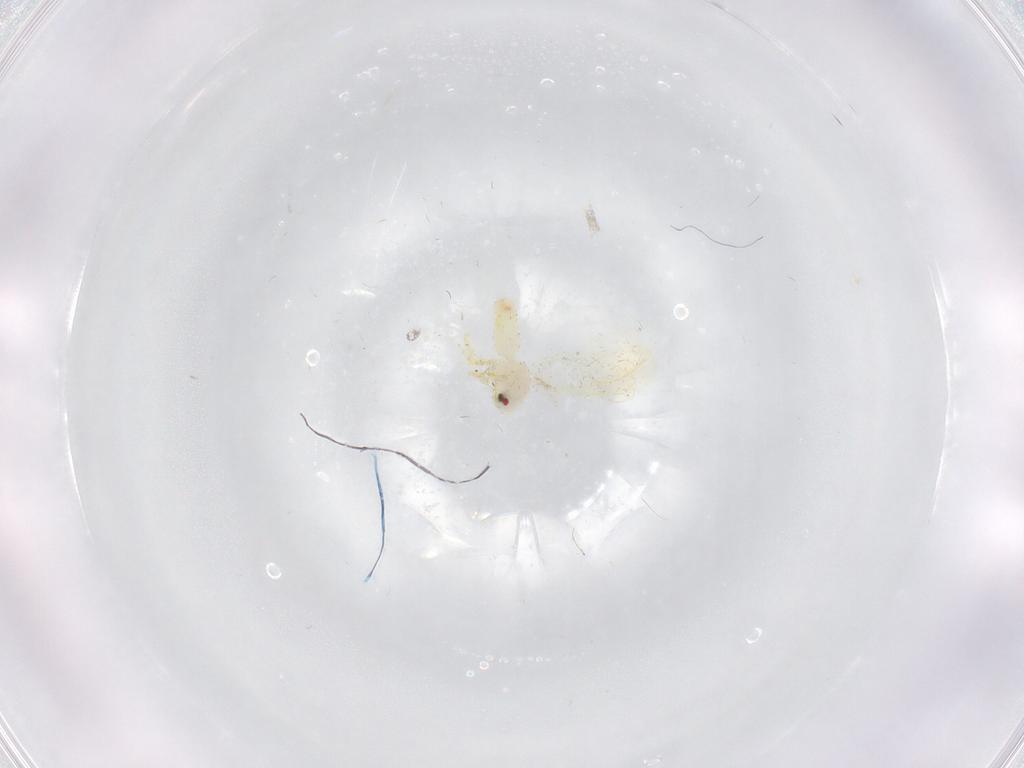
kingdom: Animalia
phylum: Arthropoda
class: Insecta
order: Hemiptera
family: Aleyrodidae
